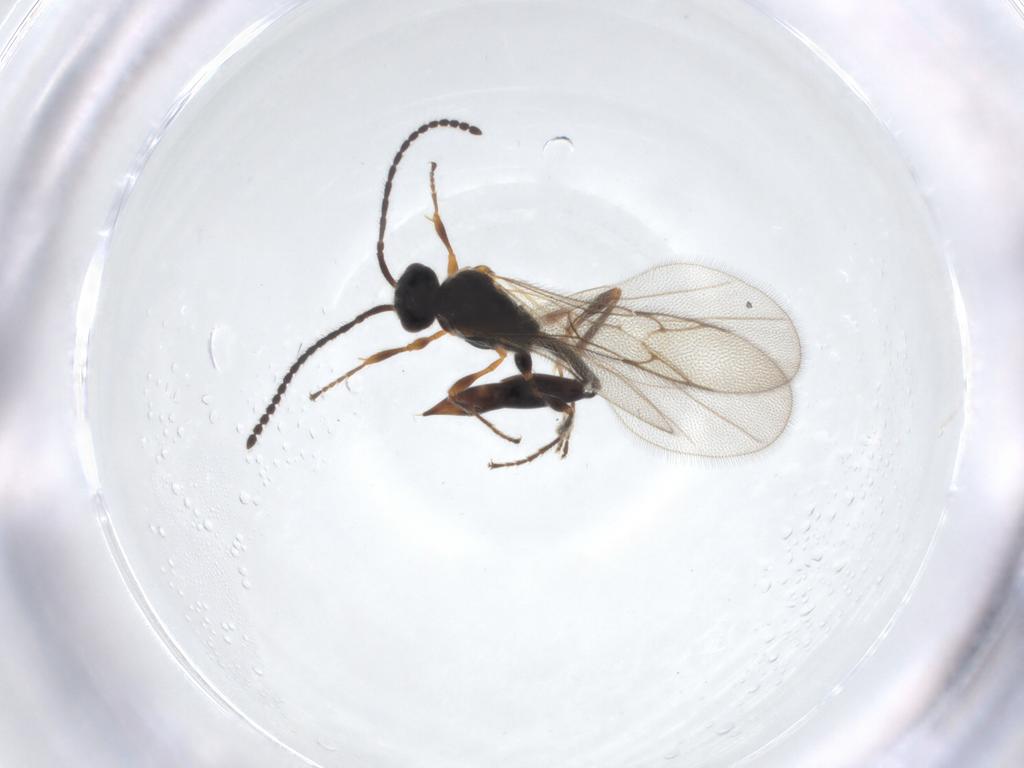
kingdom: Animalia
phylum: Arthropoda
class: Insecta
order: Hymenoptera
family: Diapriidae
